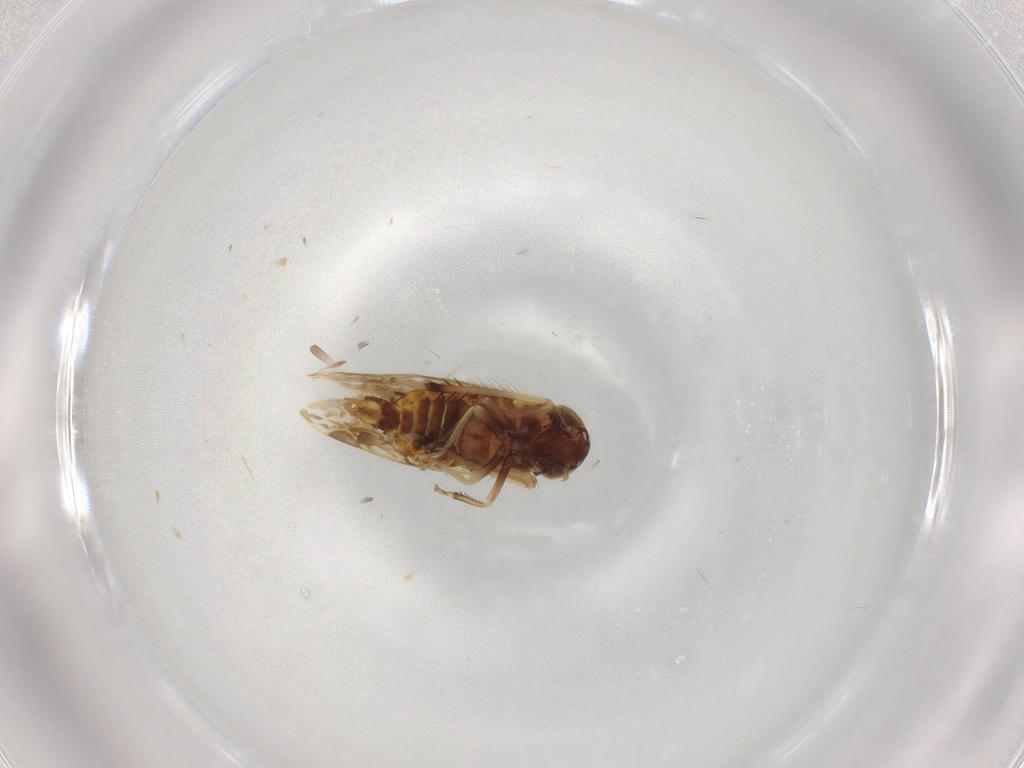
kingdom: Animalia
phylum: Arthropoda
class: Insecta
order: Hemiptera
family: Cicadellidae
